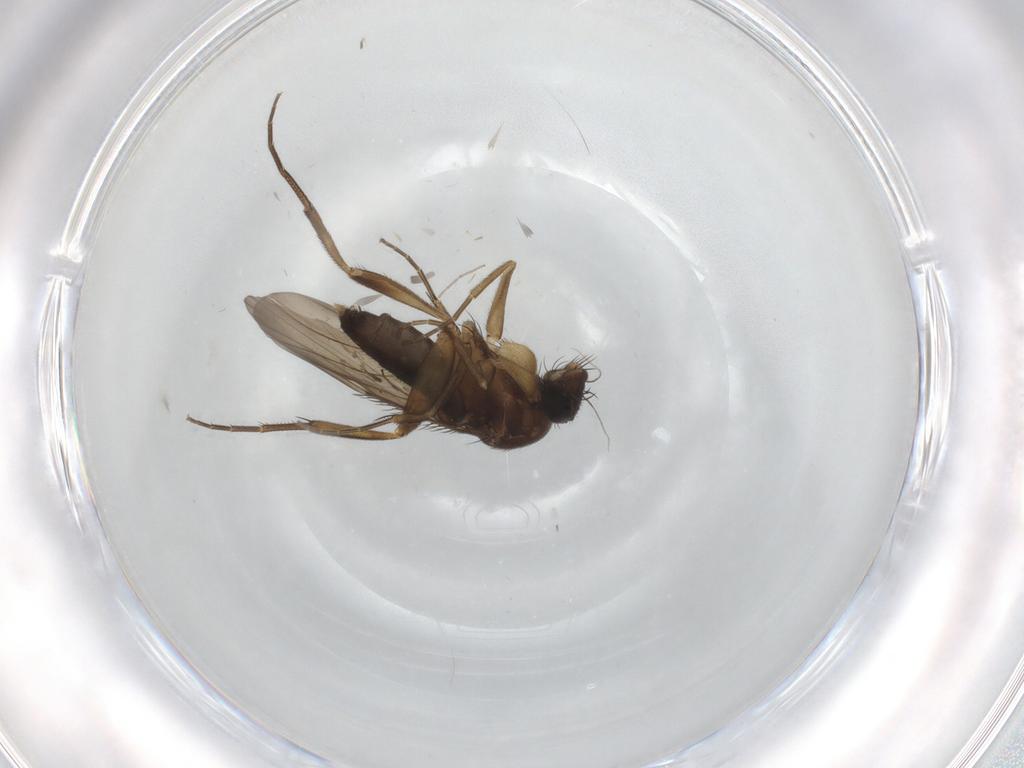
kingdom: Animalia
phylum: Arthropoda
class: Insecta
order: Diptera
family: Phoridae
